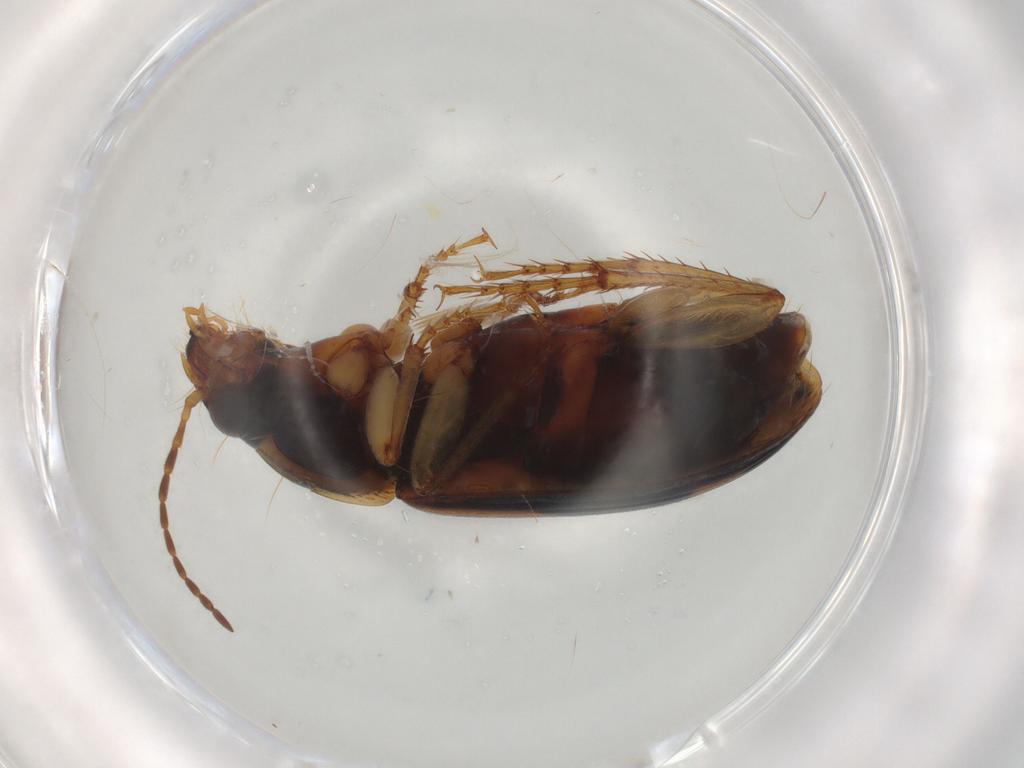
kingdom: Animalia
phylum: Arthropoda
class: Insecta
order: Coleoptera
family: Carabidae
